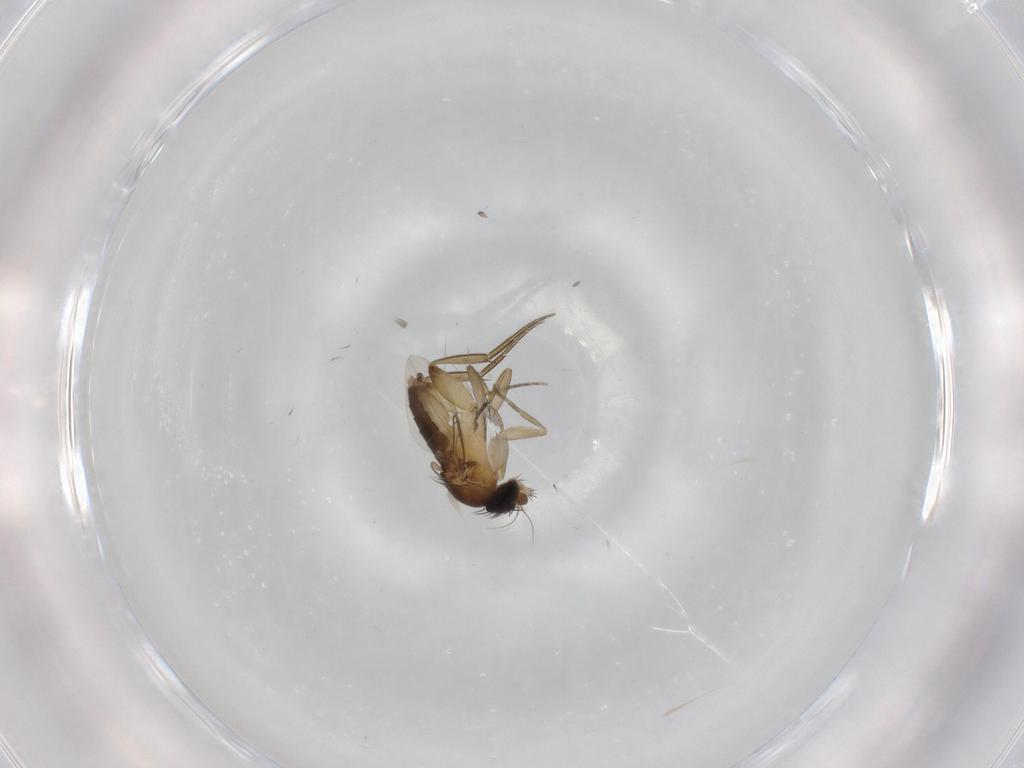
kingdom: Animalia
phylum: Arthropoda
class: Insecta
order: Diptera
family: Phoridae
